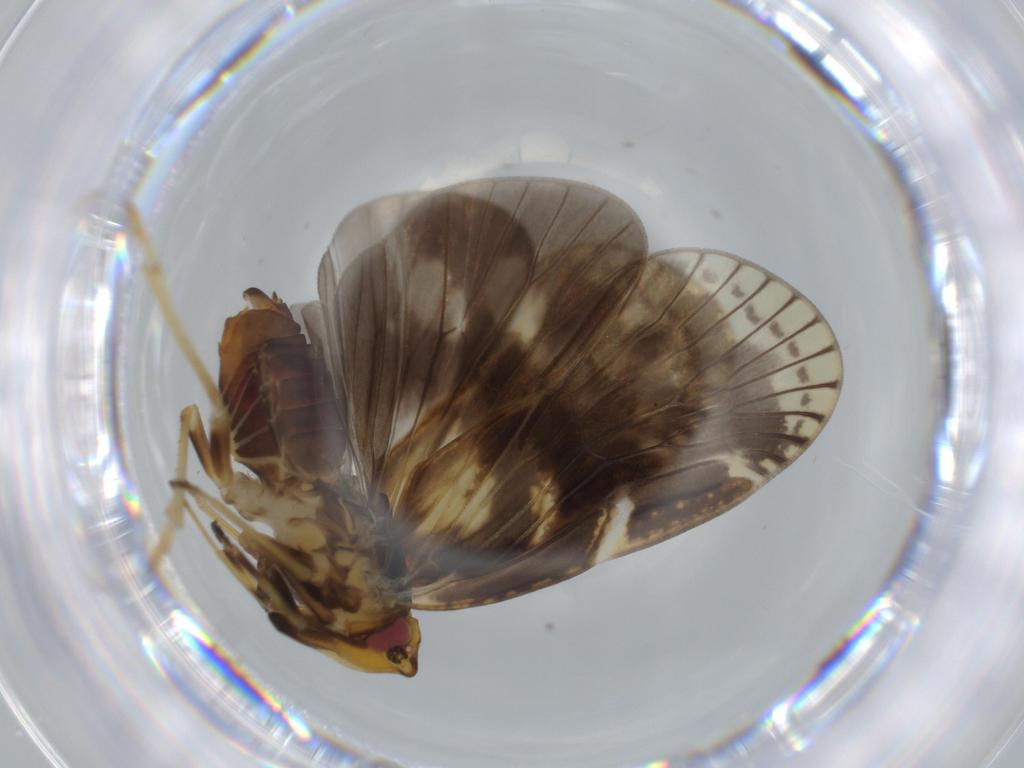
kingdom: Animalia
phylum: Arthropoda
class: Insecta
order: Hemiptera
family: Cixiidae
